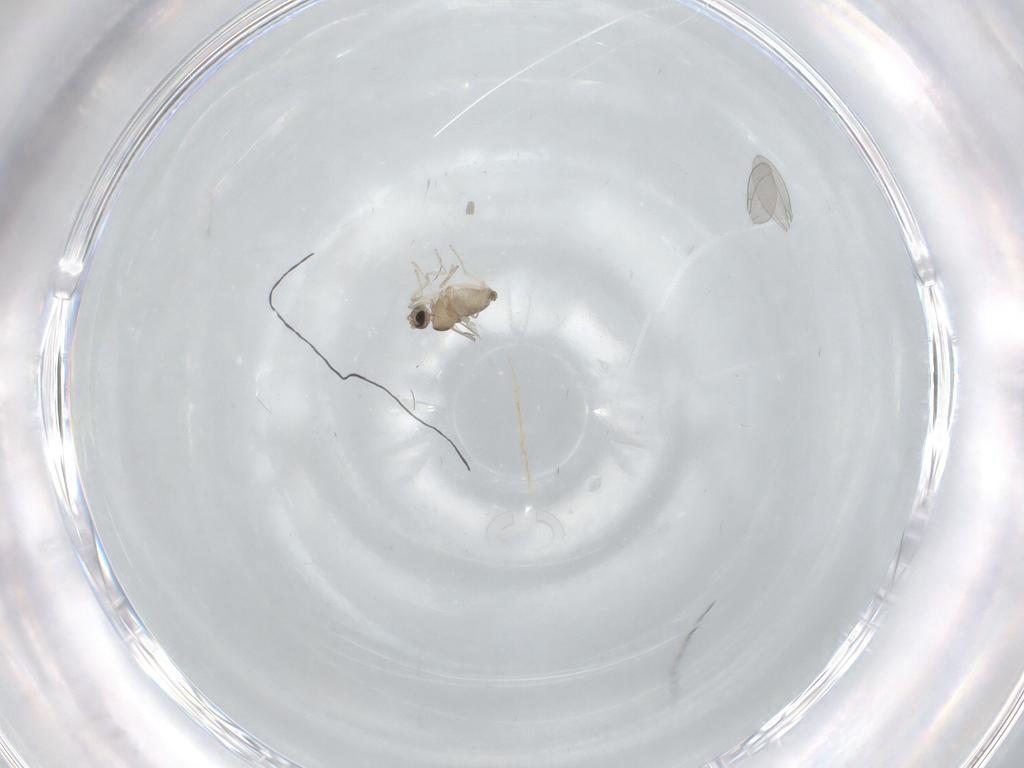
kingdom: Animalia
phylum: Arthropoda
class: Insecta
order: Diptera
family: Cecidomyiidae
